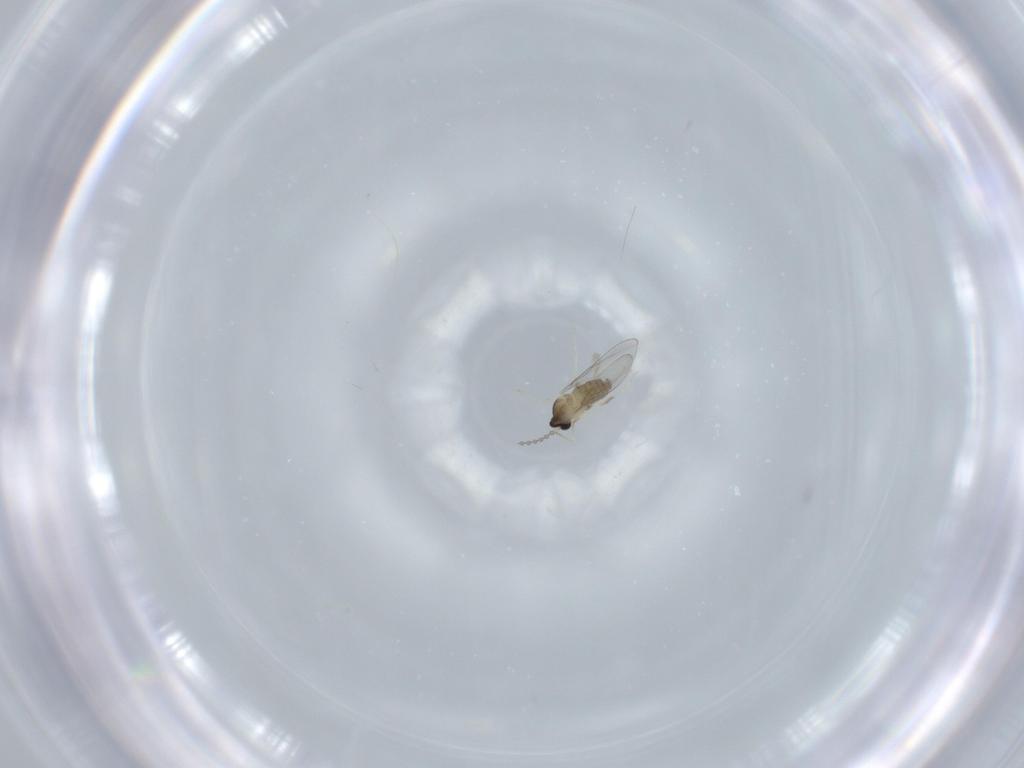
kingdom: Animalia
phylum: Arthropoda
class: Insecta
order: Diptera
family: Cecidomyiidae
